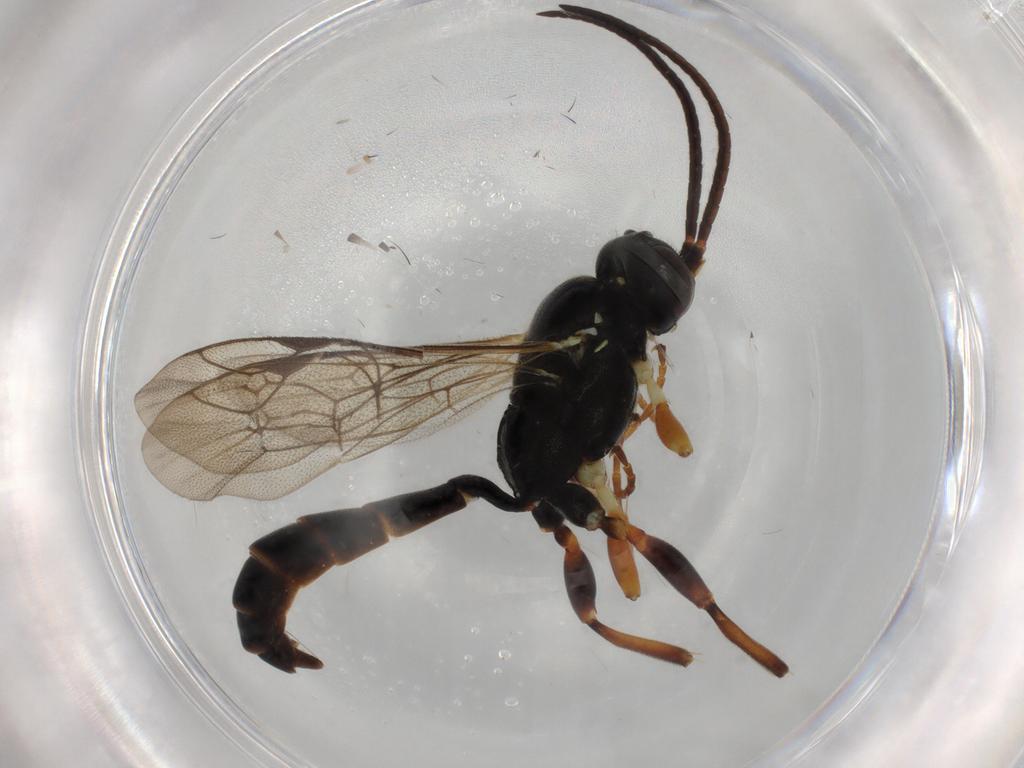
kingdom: Animalia
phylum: Arthropoda
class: Insecta
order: Hymenoptera
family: Ichneumonidae
